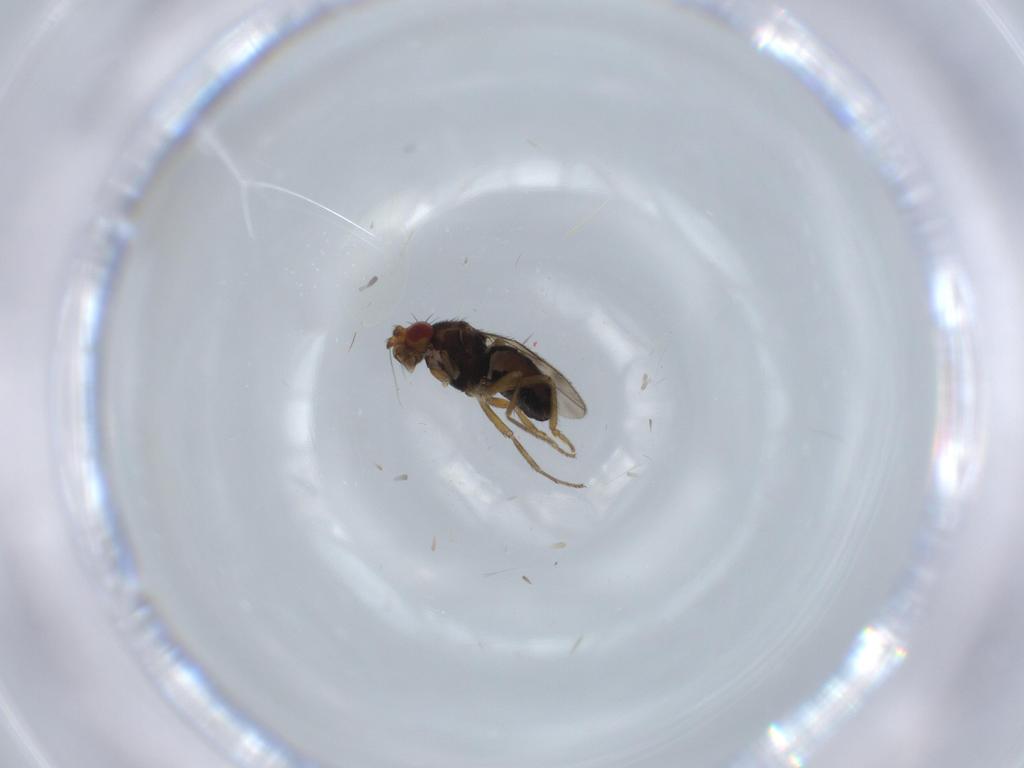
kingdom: Animalia
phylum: Arthropoda
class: Insecta
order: Diptera
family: Sphaeroceridae
